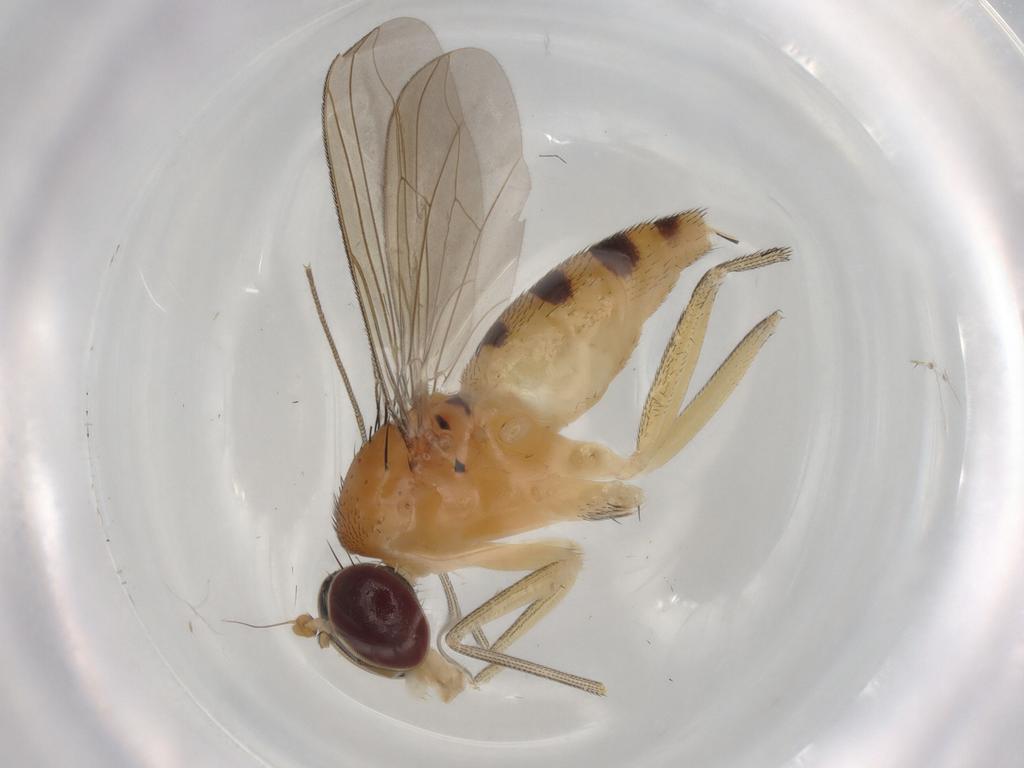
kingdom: Animalia
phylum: Arthropoda
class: Insecta
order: Diptera
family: Dolichopodidae
